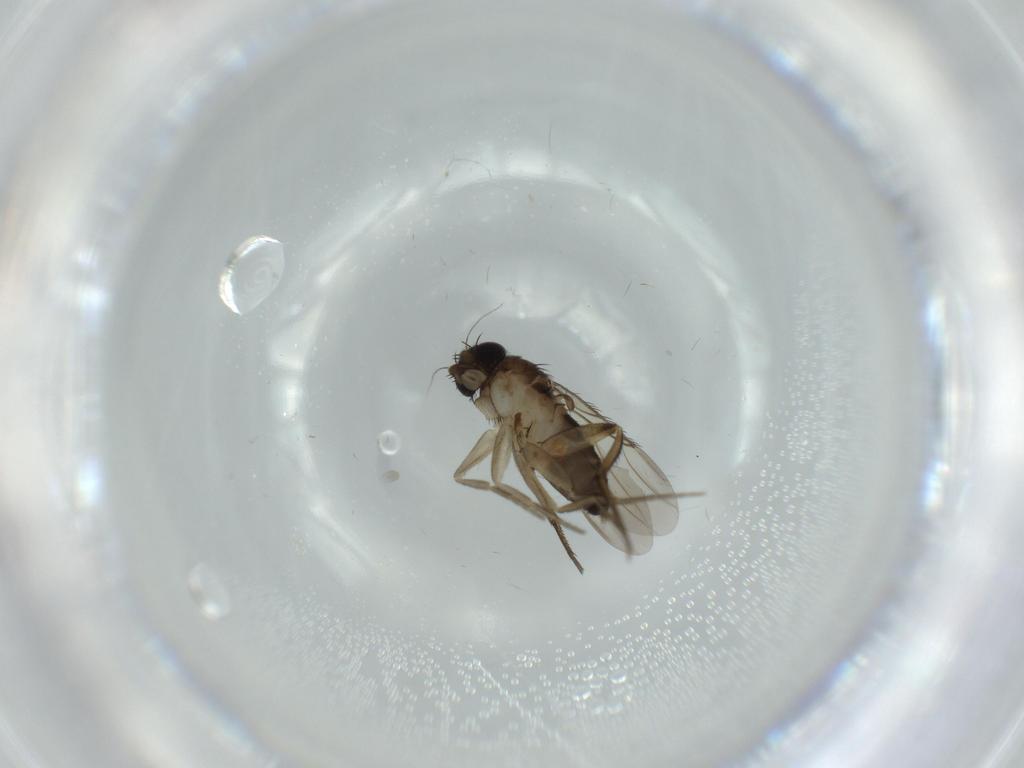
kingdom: Animalia
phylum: Arthropoda
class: Insecta
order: Diptera
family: Phoridae
